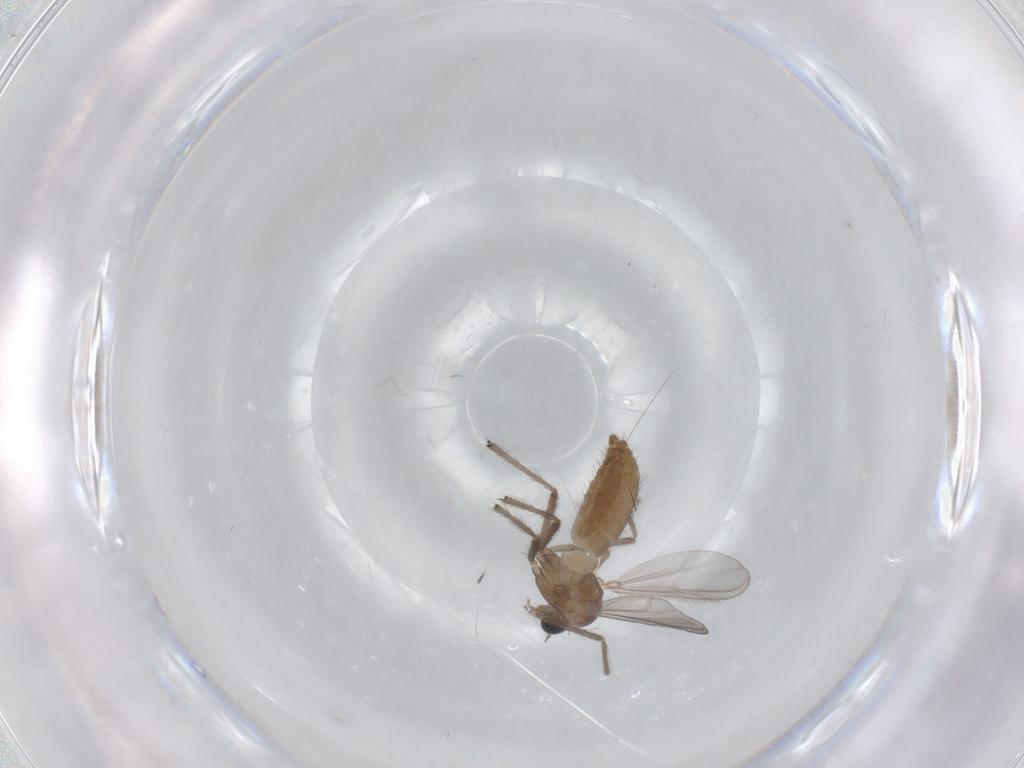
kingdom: Animalia
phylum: Arthropoda
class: Insecta
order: Diptera
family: Chironomidae
